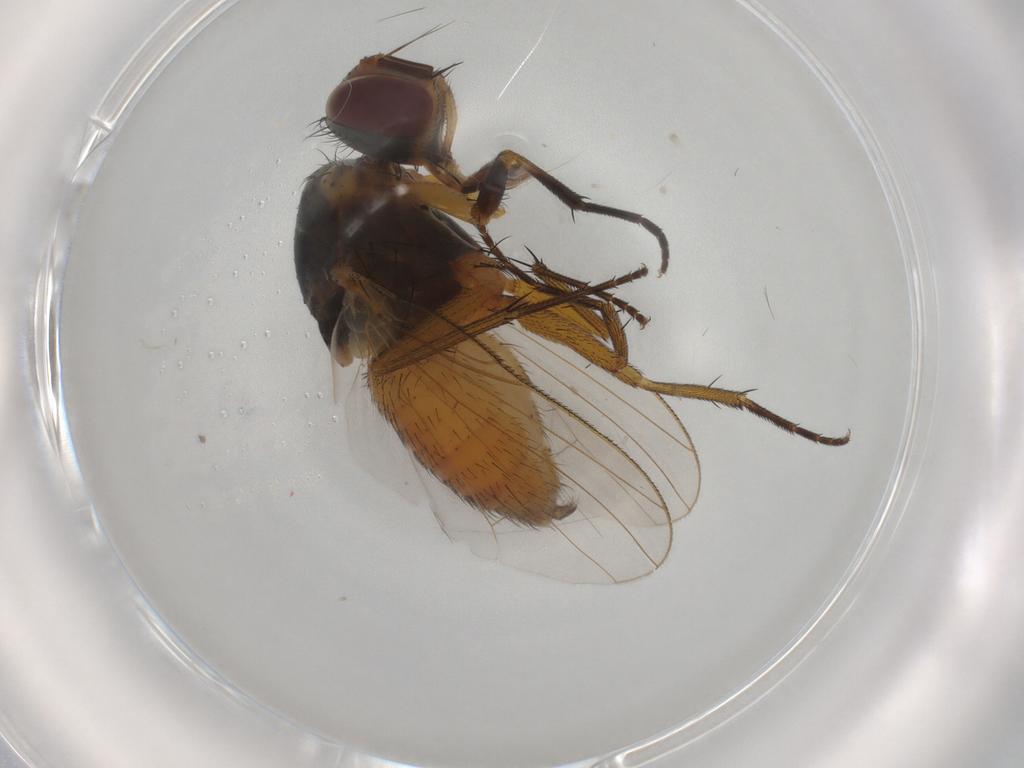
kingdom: Animalia
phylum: Arthropoda
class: Insecta
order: Diptera
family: Muscidae
